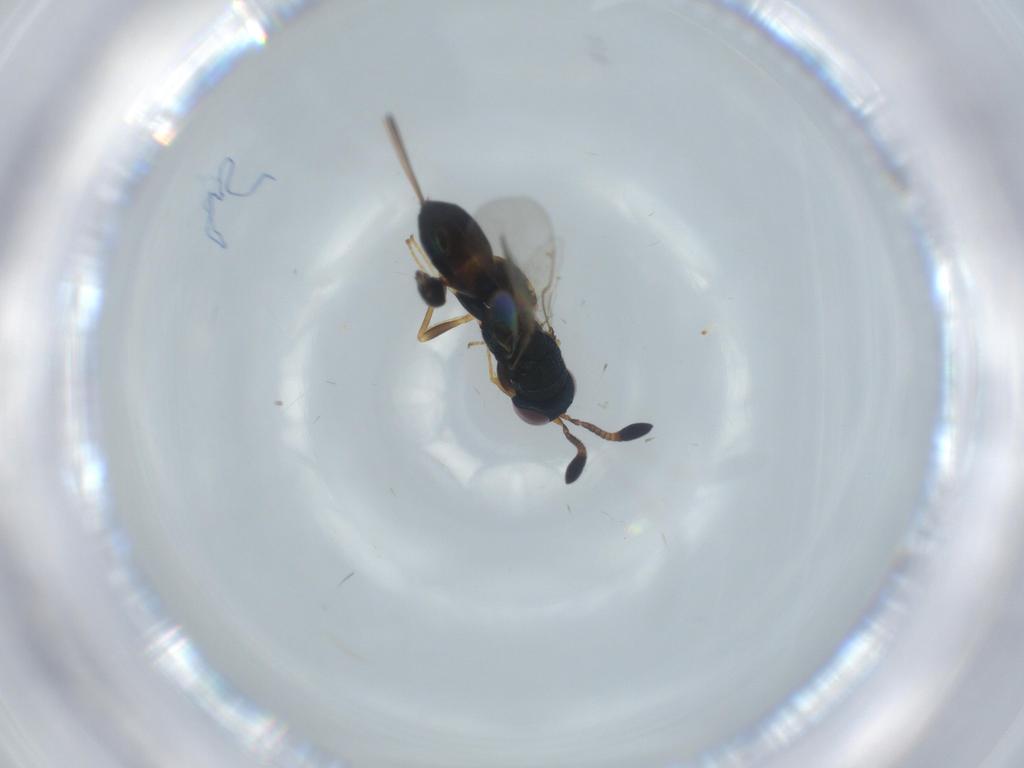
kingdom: Animalia
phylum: Arthropoda
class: Insecta
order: Hymenoptera
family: Torymidae
